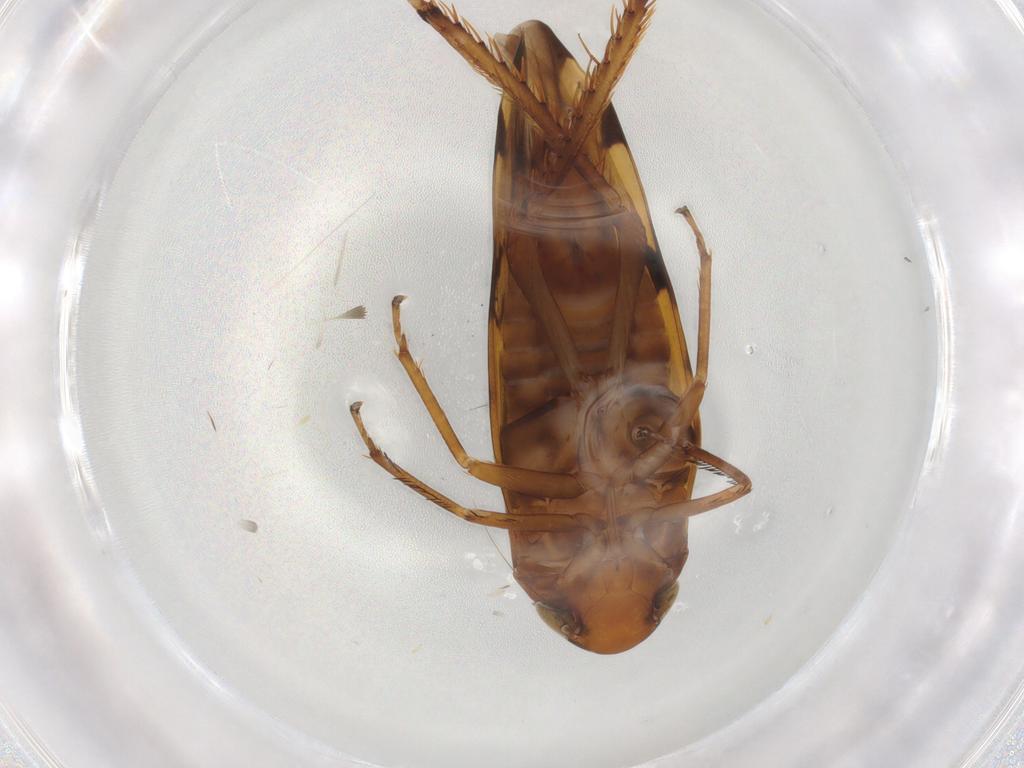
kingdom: Animalia
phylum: Arthropoda
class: Insecta
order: Hemiptera
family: Cicadellidae
